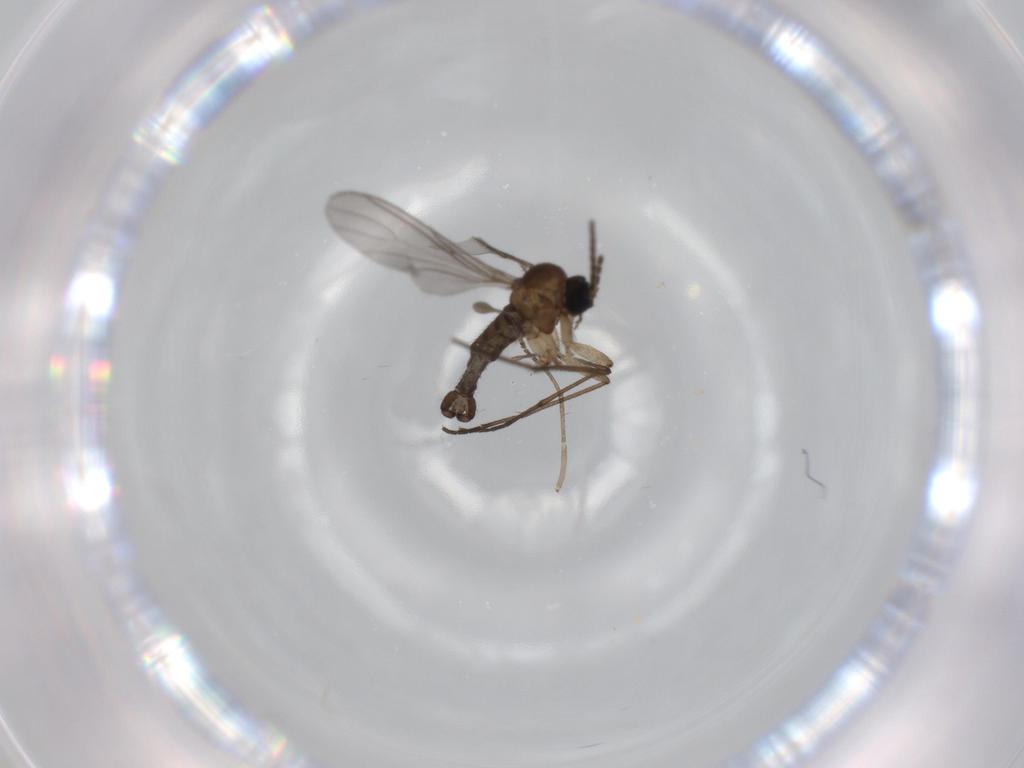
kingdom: Animalia
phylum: Arthropoda
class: Insecta
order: Diptera
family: Sciaridae
